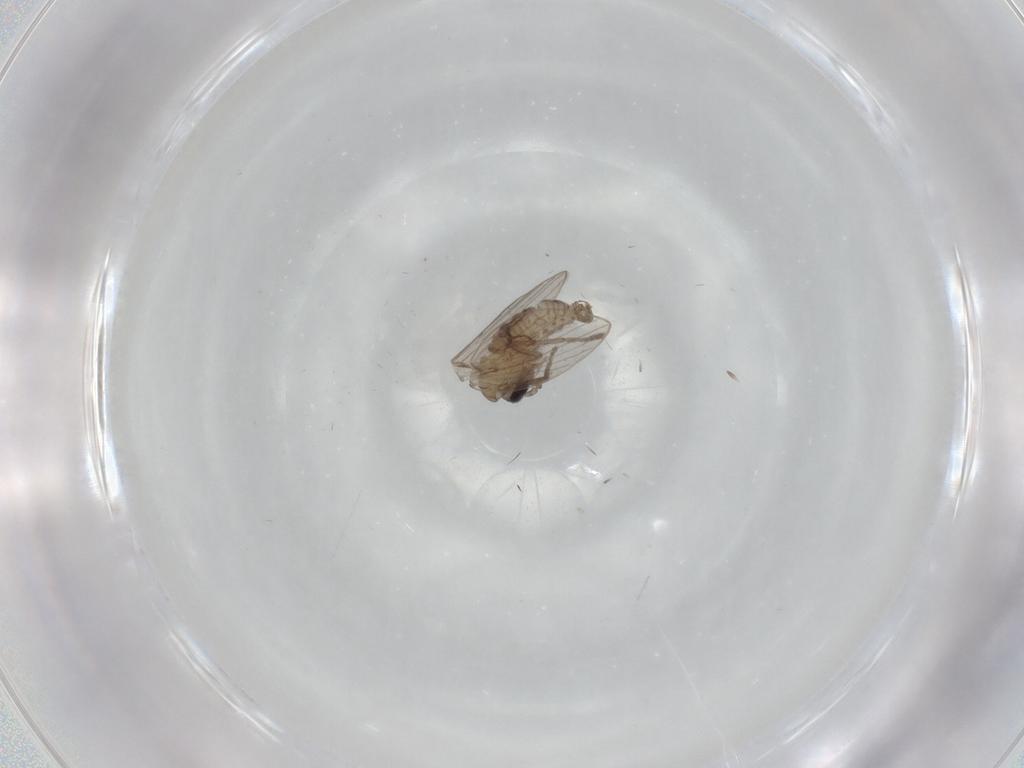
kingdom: Animalia
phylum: Arthropoda
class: Insecta
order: Diptera
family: Psychodidae
